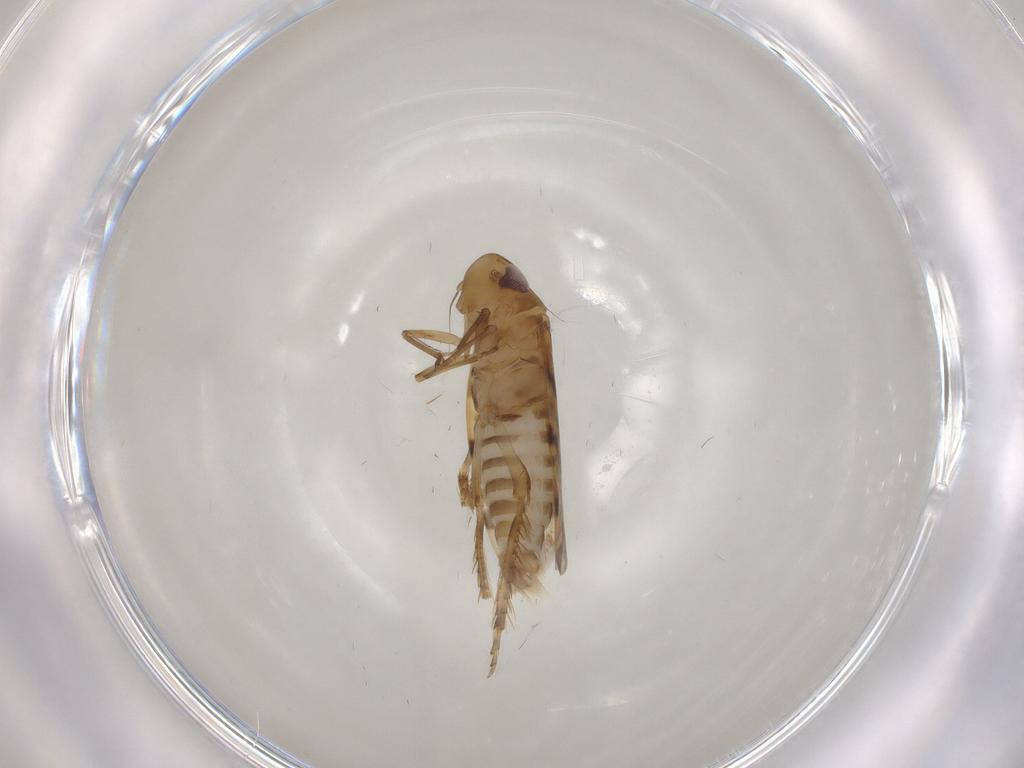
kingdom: Animalia
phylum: Arthropoda
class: Insecta
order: Hemiptera
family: Cicadellidae
